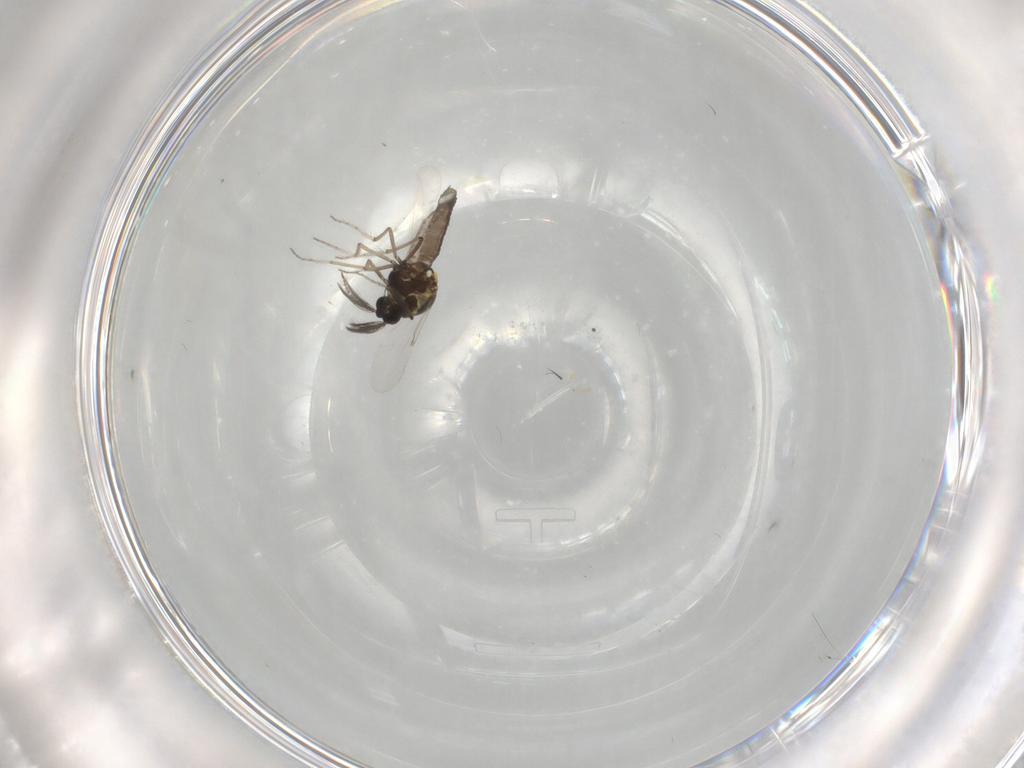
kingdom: Animalia
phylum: Arthropoda
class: Insecta
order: Diptera
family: Ceratopogonidae
